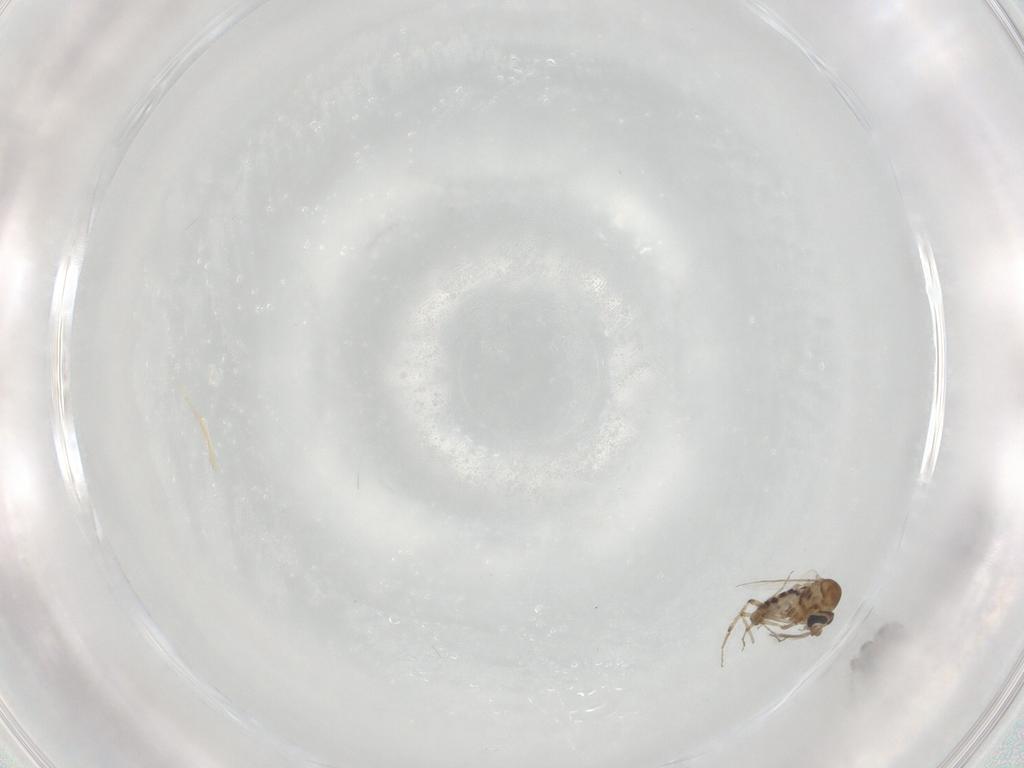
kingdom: Animalia
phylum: Arthropoda
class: Insecta
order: Diptera
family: Ceratopogonidae
